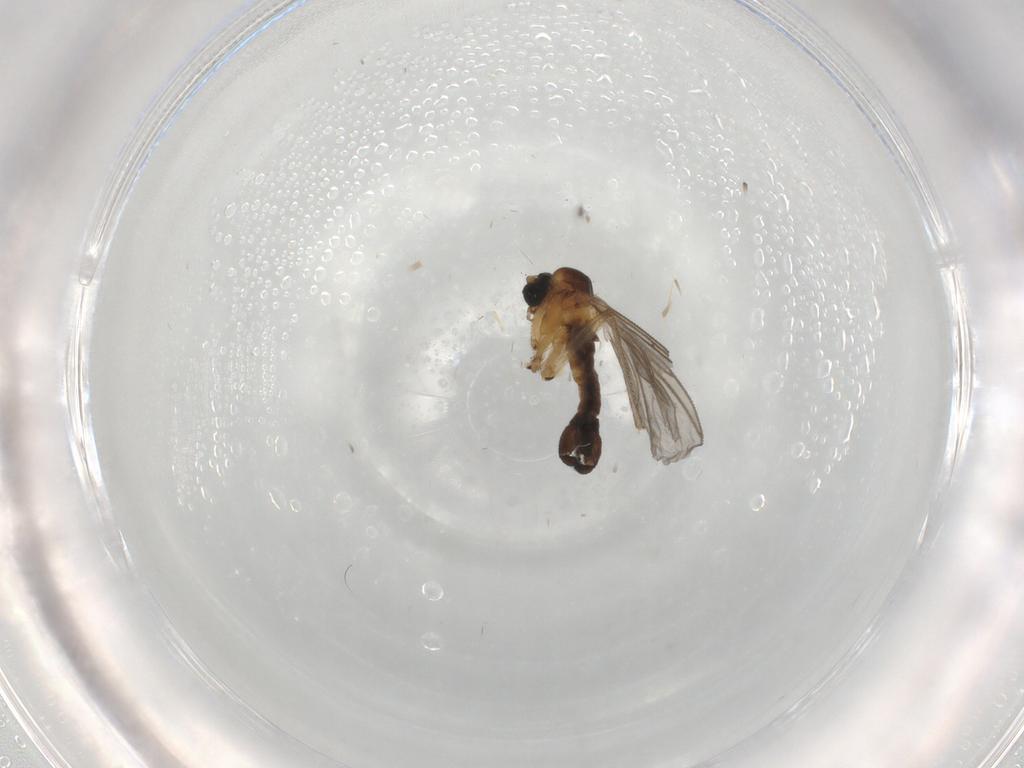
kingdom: Animalia
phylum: Arthropoda
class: Insecta
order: Diptera
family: Sciaridae
